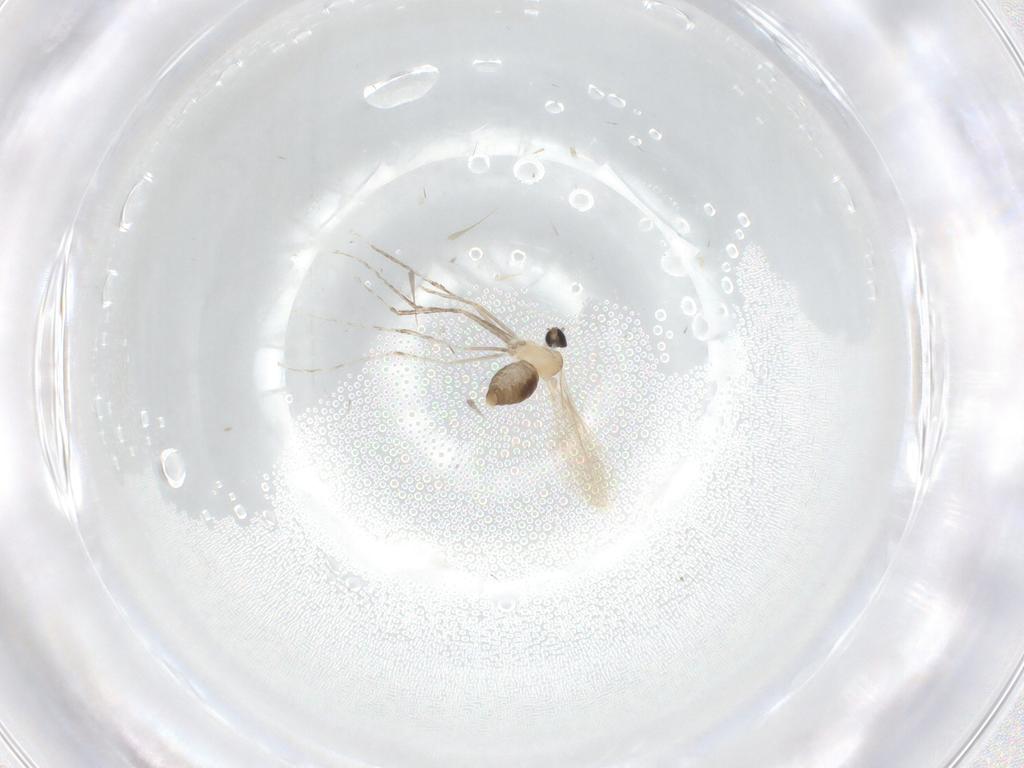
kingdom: Animalia
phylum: Arthropoda
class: Insecta
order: Diptera
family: Cecidomyiidae
